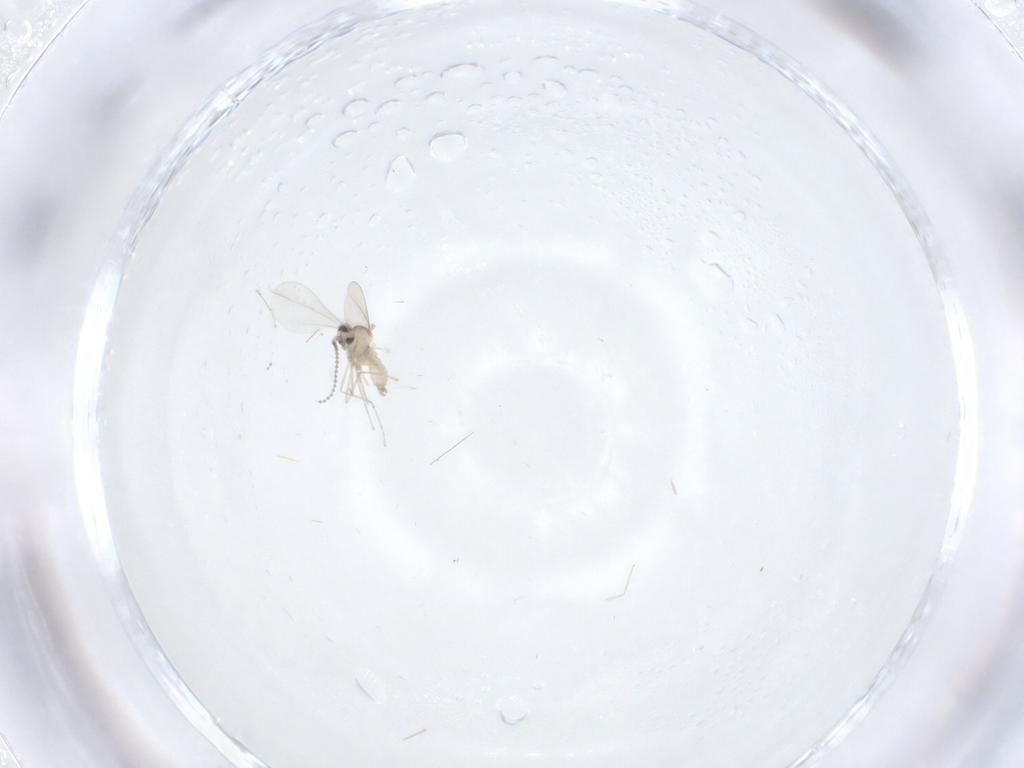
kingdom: Animalia
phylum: Arthropoda
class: Insecta
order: Diptera
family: Cecidomyiidae
